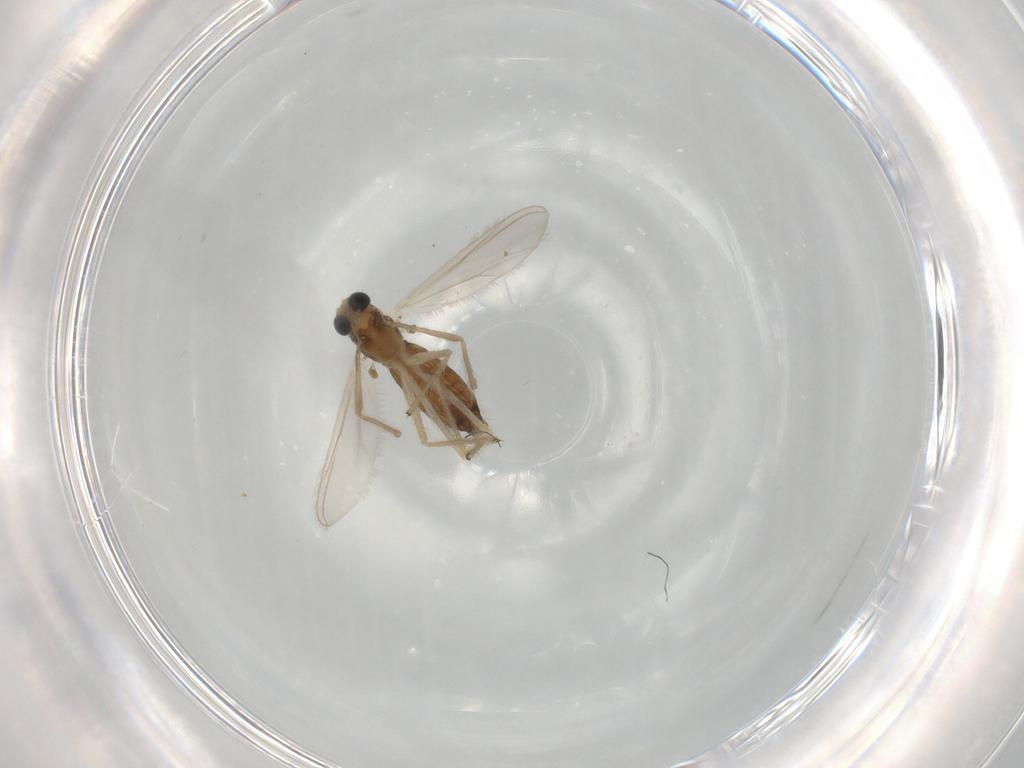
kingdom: Animalia
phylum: Arthropoda
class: Insecta
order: Diptera
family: Chironomidae
